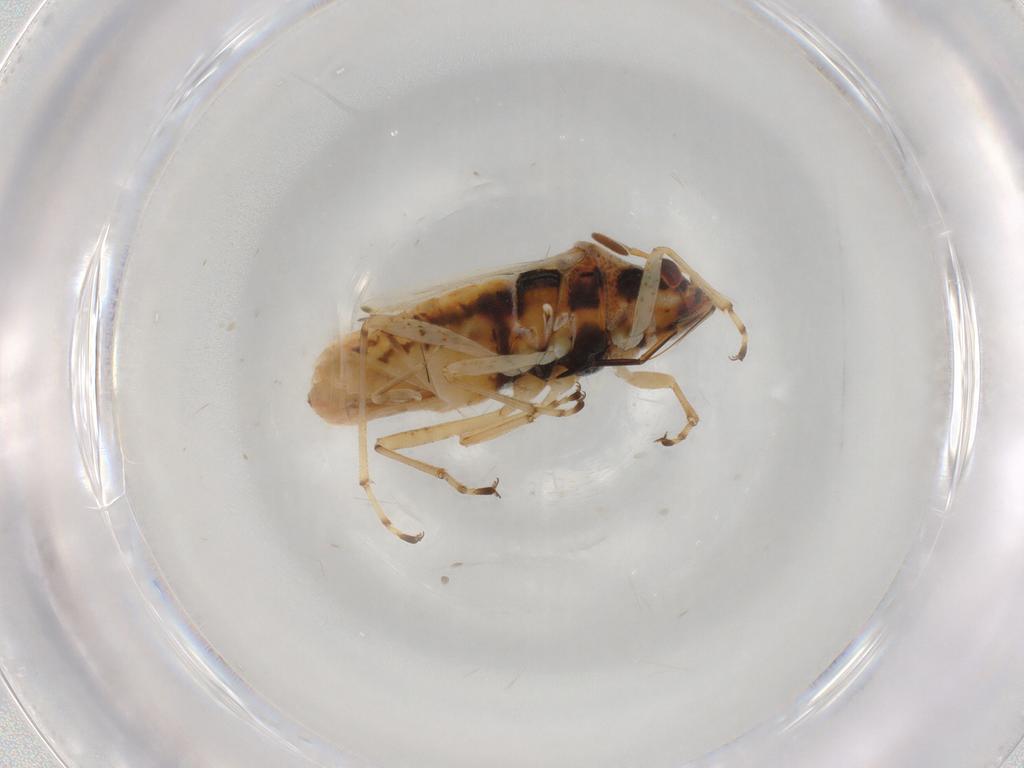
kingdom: Animalia
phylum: Arthropoda
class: Insecta
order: Hemiptera
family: Lygaeidae
